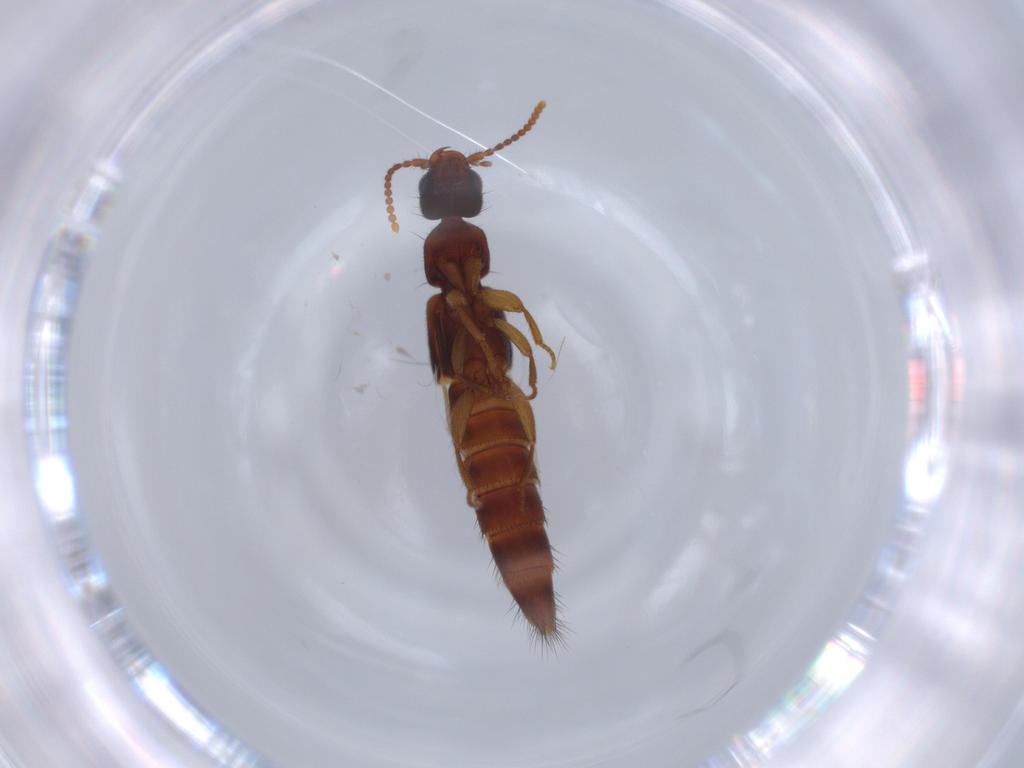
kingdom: Animalia
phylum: Arthropoda
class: Insecta
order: Coleoptera
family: Staphylinidae
